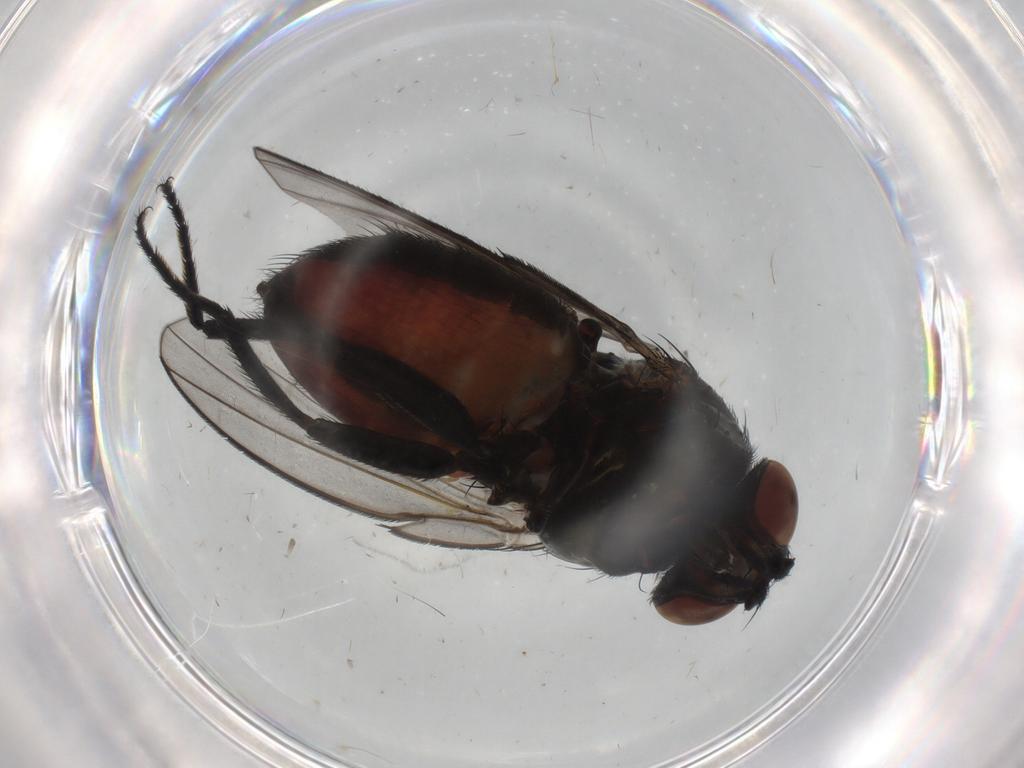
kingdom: Animalia
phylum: Arthropoda
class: Insecta
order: Diptera
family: Milichiidae
